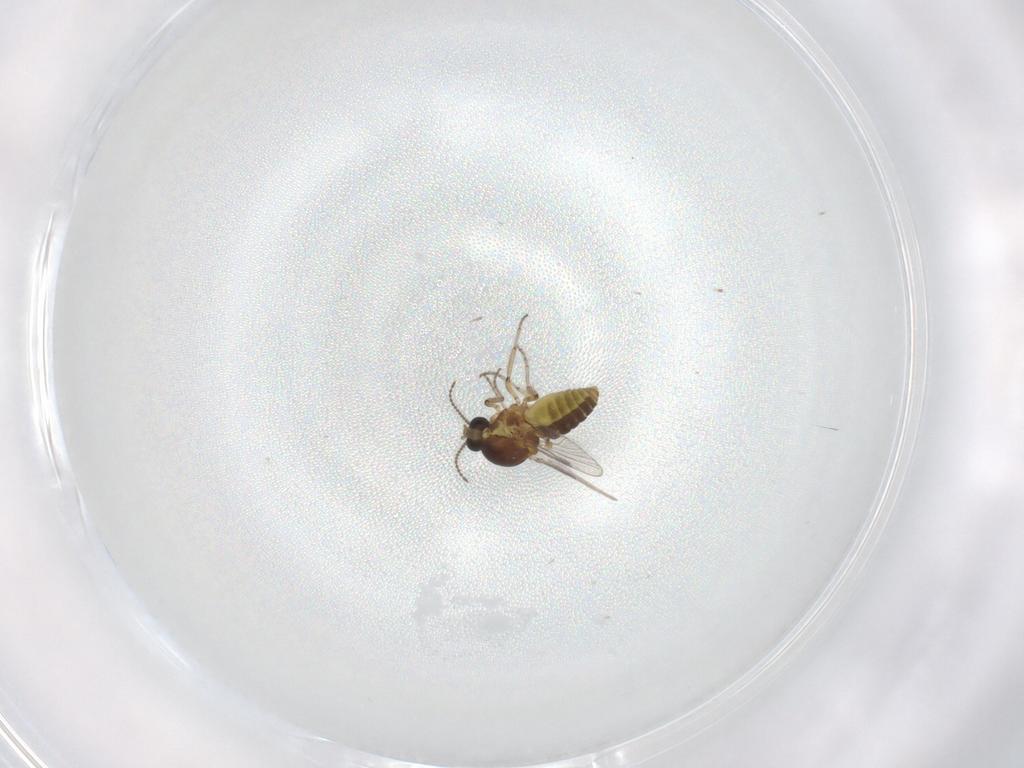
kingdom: Animalia
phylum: Arthropoda
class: Insecta
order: Diptera
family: Ceratopogonidae
